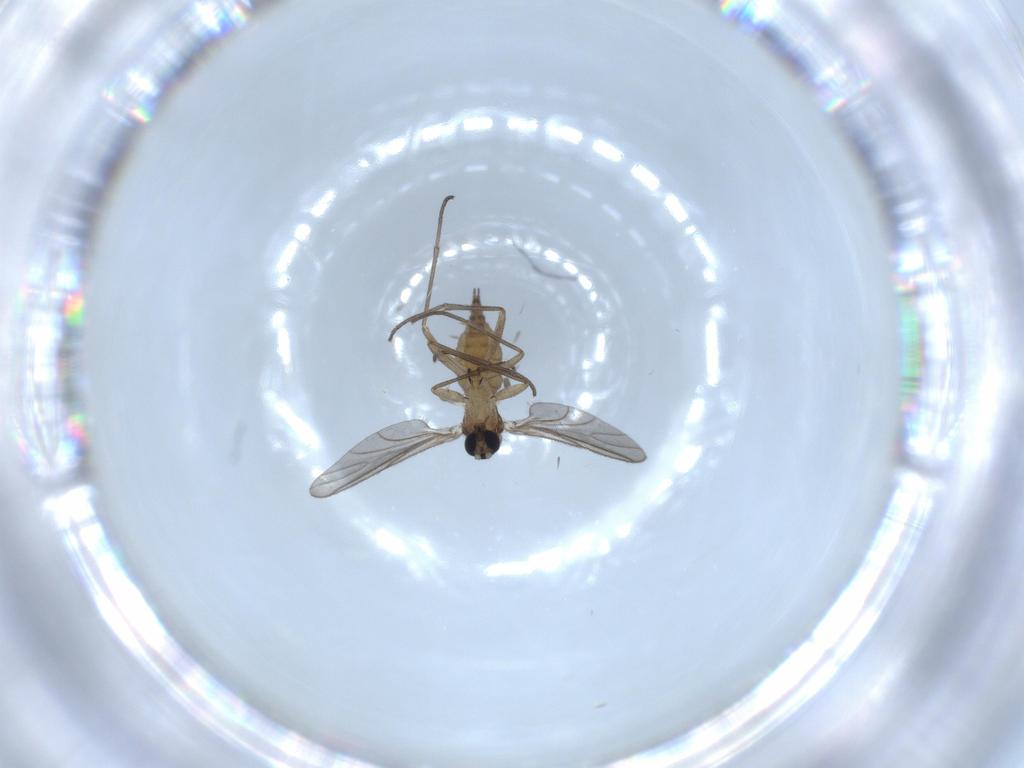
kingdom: Animalia
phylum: Arthropoda
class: Insecta
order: Diptera
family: Sciaridae
